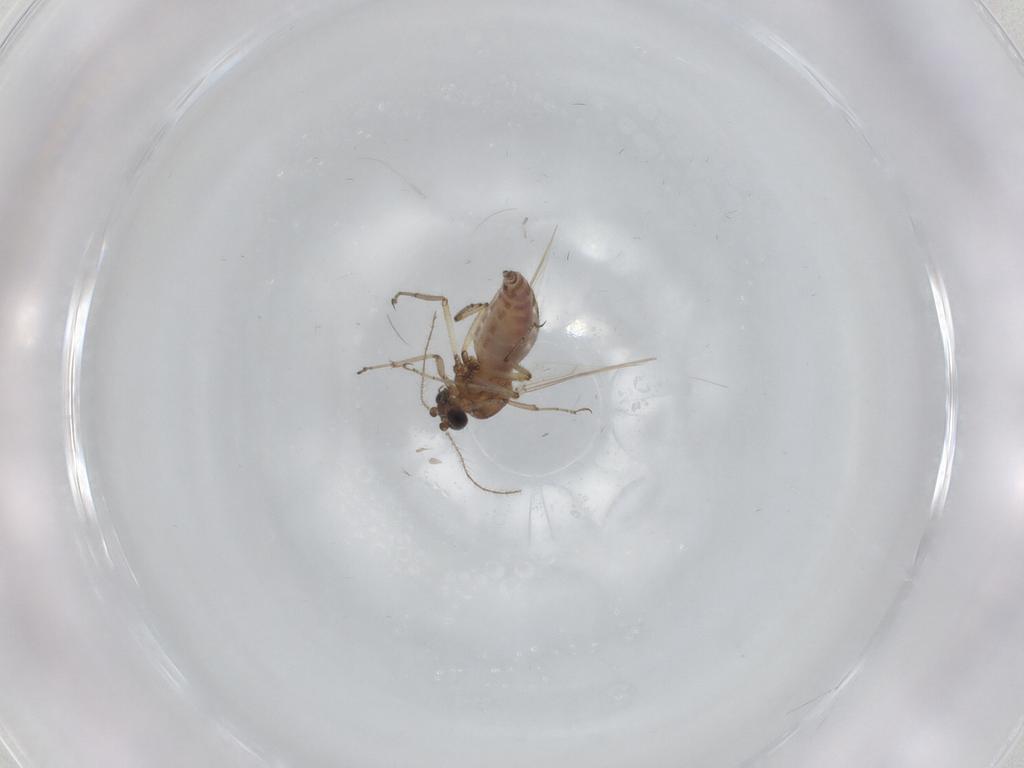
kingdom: Animalia
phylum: Arthropoda
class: Insecta
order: Diptera
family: Ceratopogonidae
